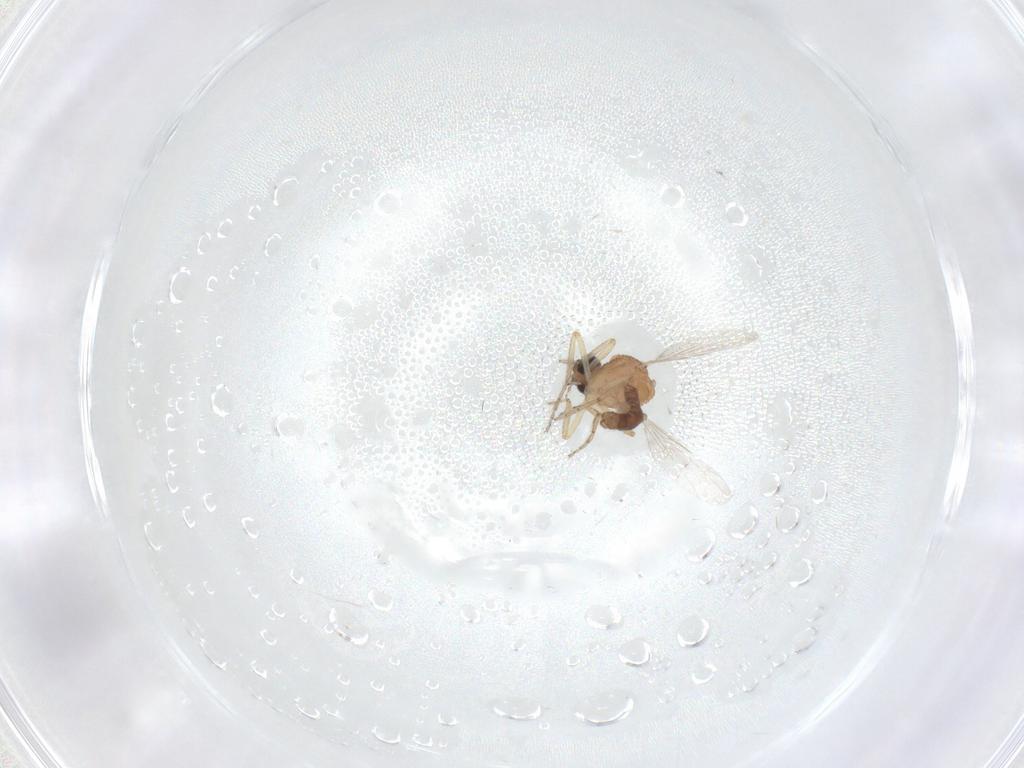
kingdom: Animalia
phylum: Arthropoda
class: Insecta
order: Diptera
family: Ceratopogonidae
